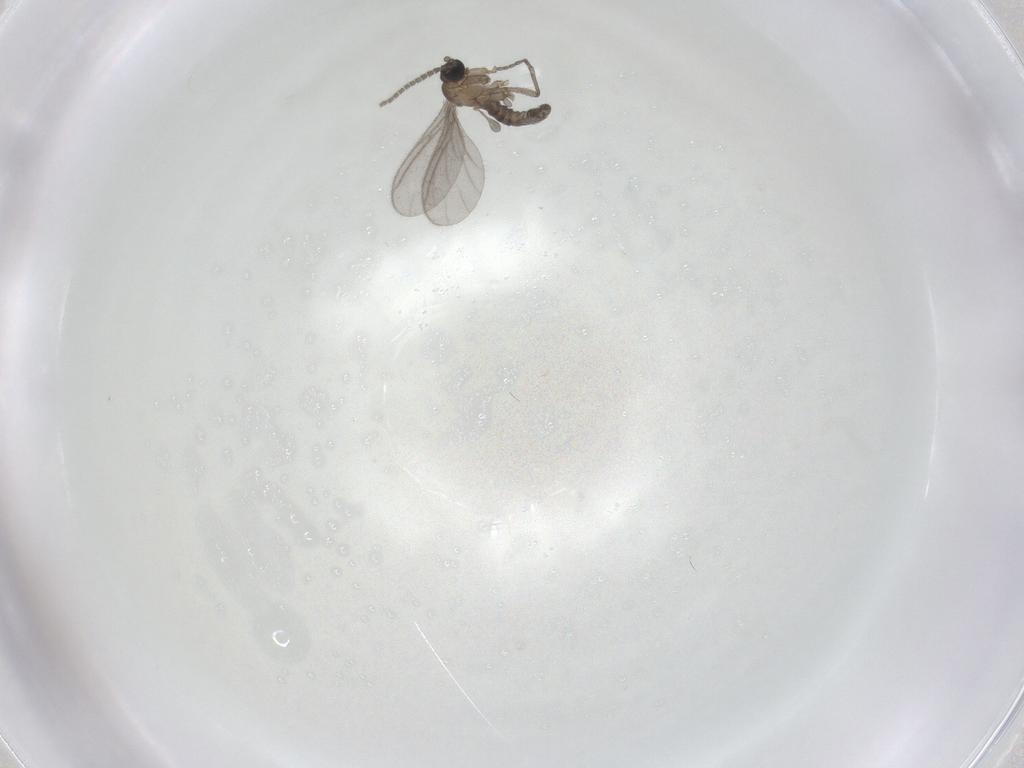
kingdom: Animalia
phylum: Arthropoda
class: Insecta
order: Diptera
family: Sciaridae
